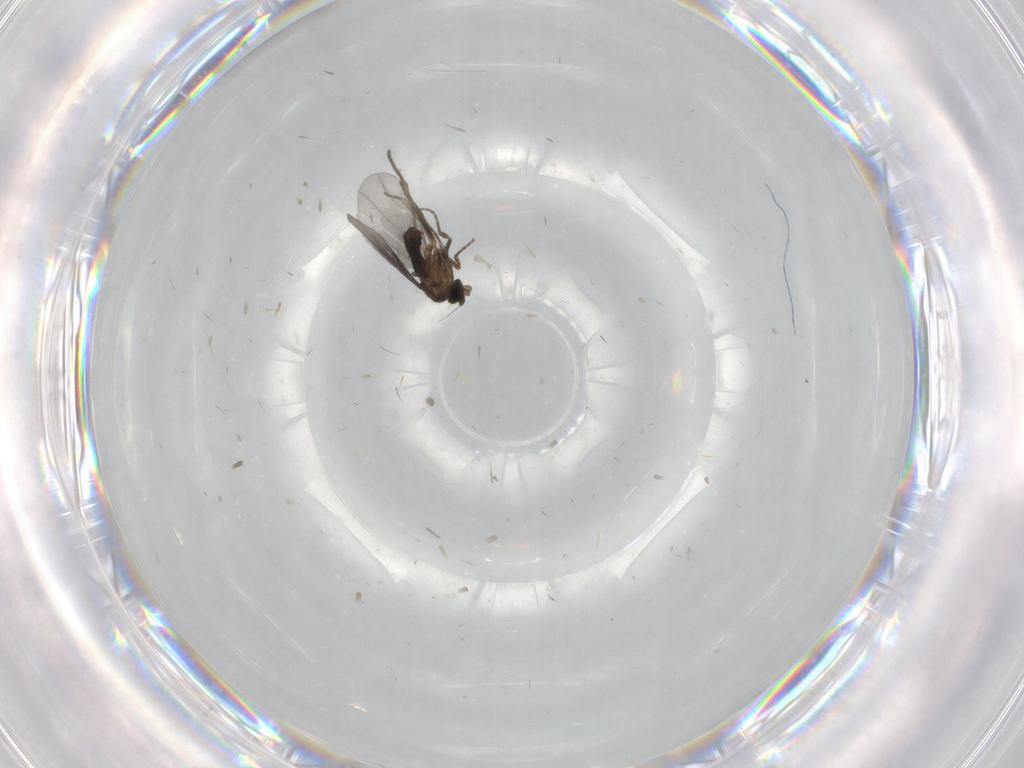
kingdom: Animalia
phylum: Arthropoda
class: Insecta
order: Diptera
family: Phoridae
